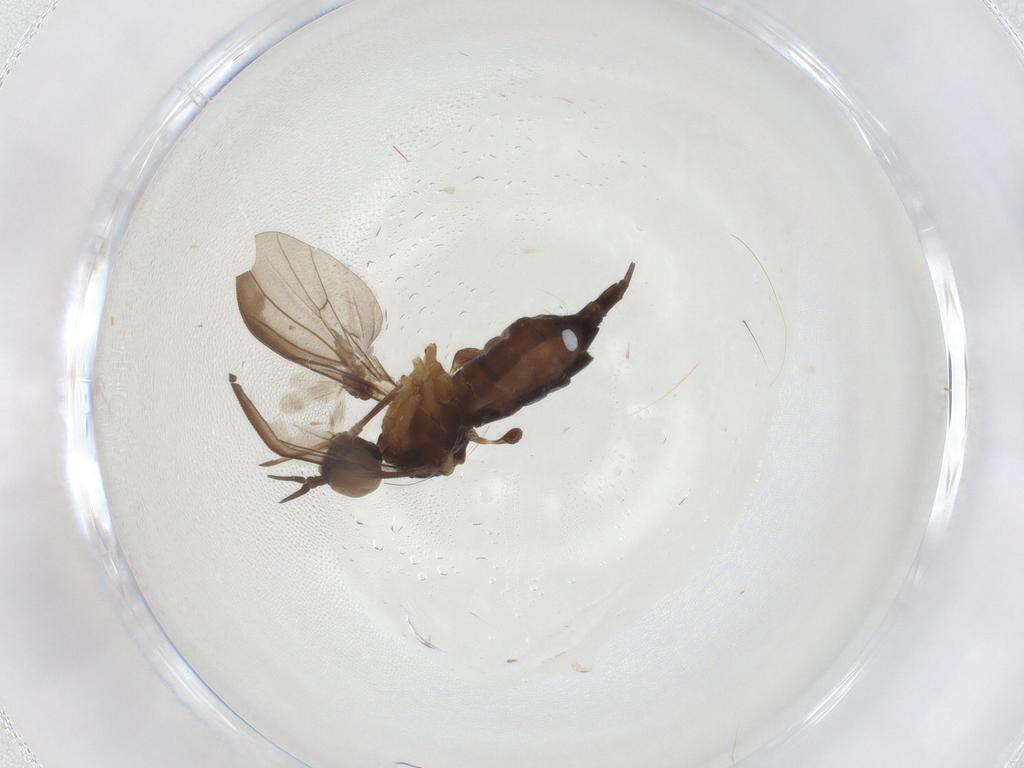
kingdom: Animalia
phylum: Arthropoda
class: Insecta
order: Diptera
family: Dolichopodidae
